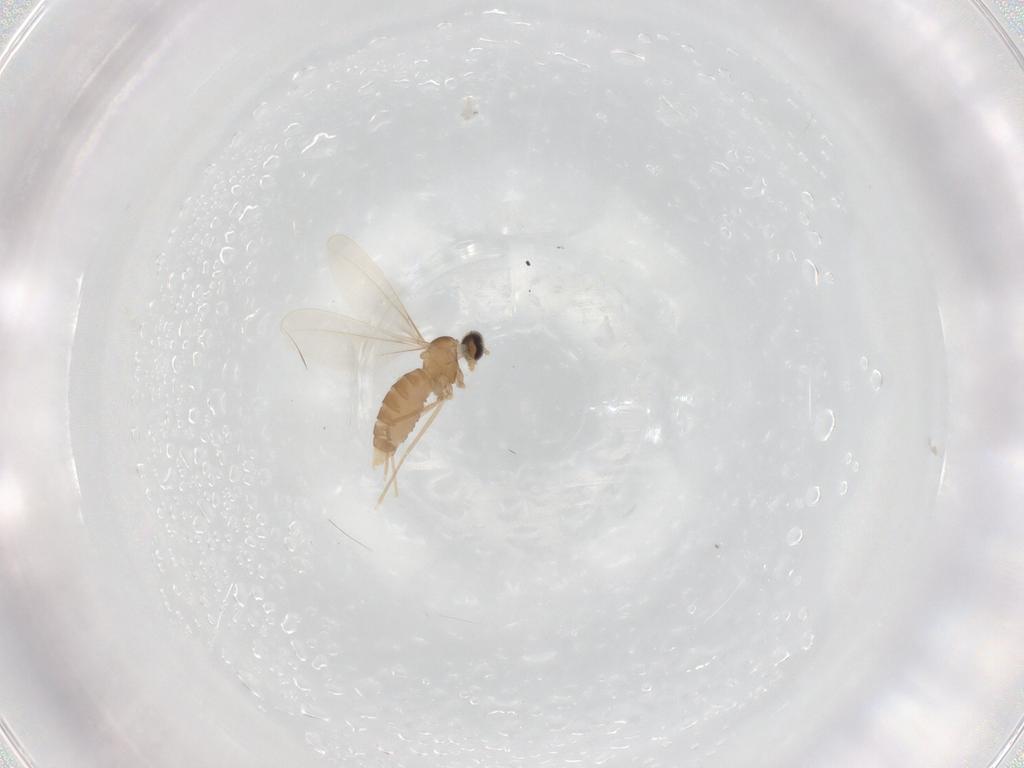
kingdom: Animalia
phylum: Arthropoda
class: Insecta
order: Diptera
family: Cecidomyiidae
